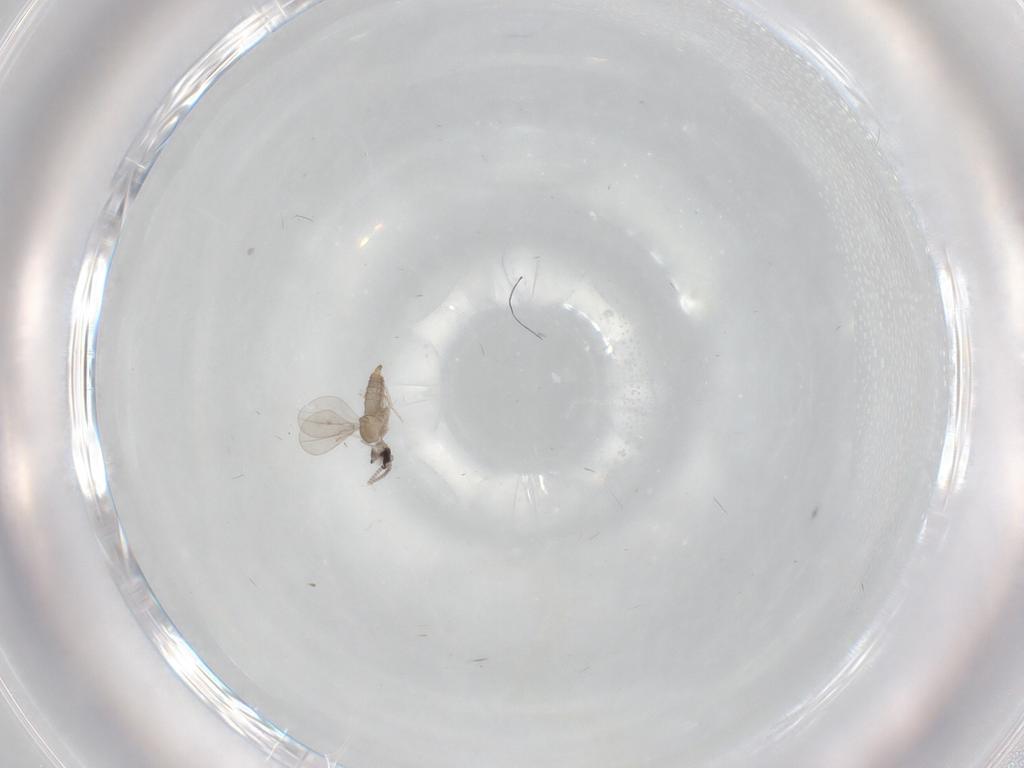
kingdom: Animalia
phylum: Arthropoda
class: Insecta
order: Diptera
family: Cecidomyiidae
